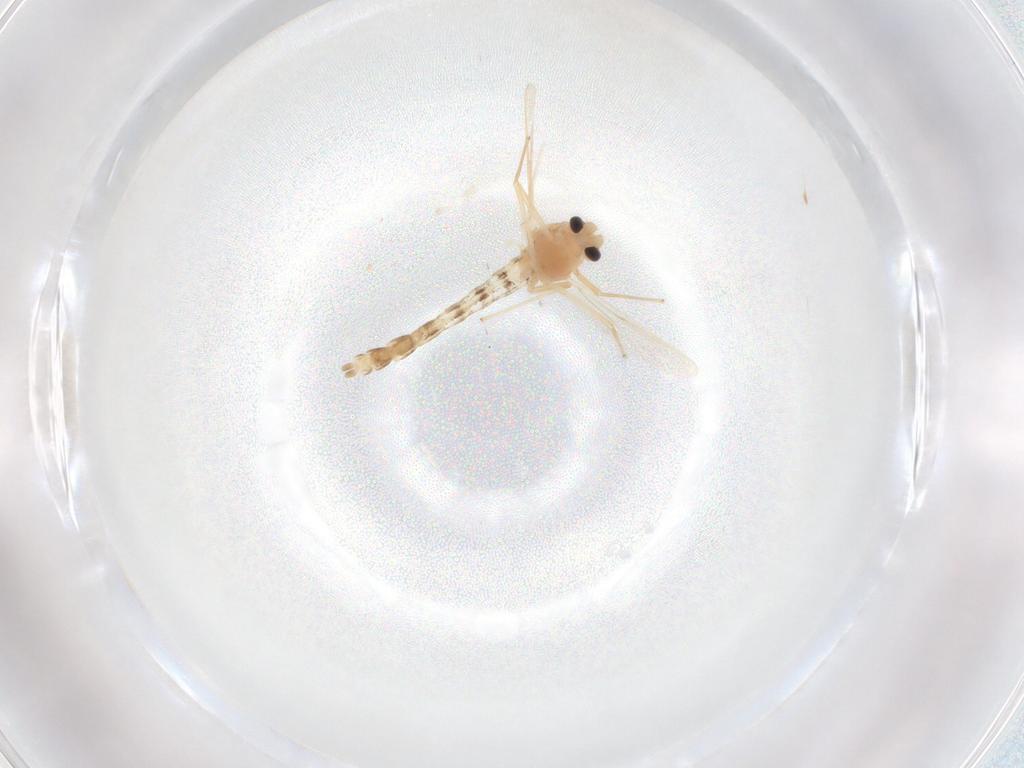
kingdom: Animalia
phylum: Arthropoda
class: Insecta
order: Diptera
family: Chironomidae
